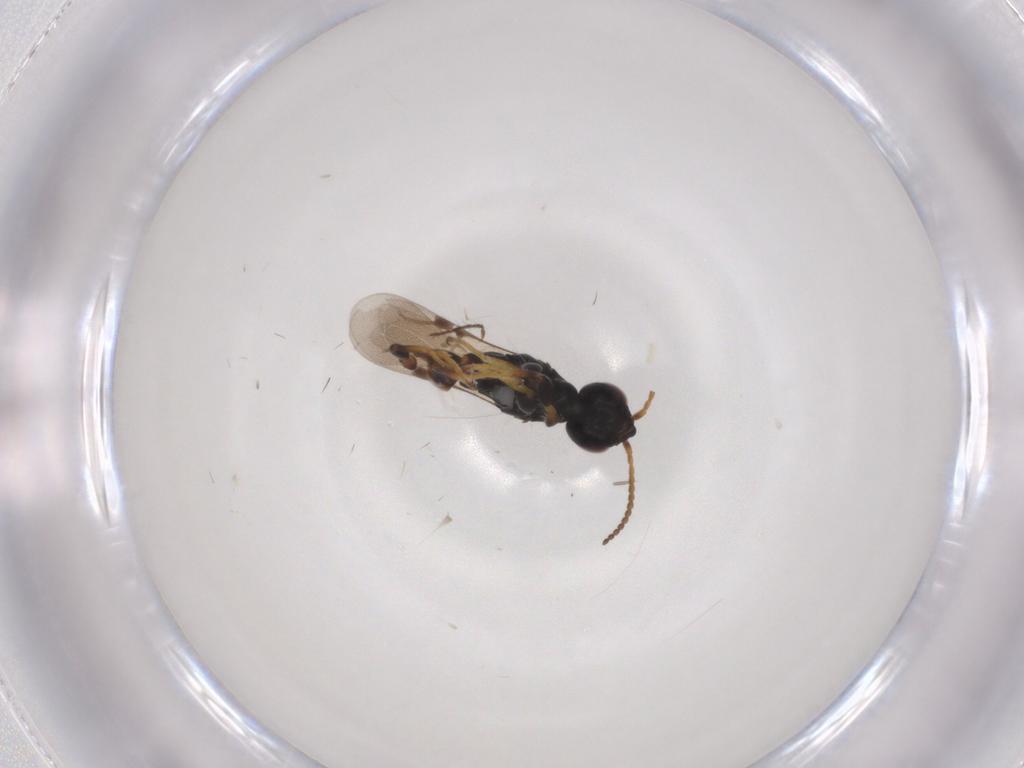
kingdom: Animalia
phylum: Arthropoda
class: Insecta
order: Hymenoptera
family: Bethylidae
